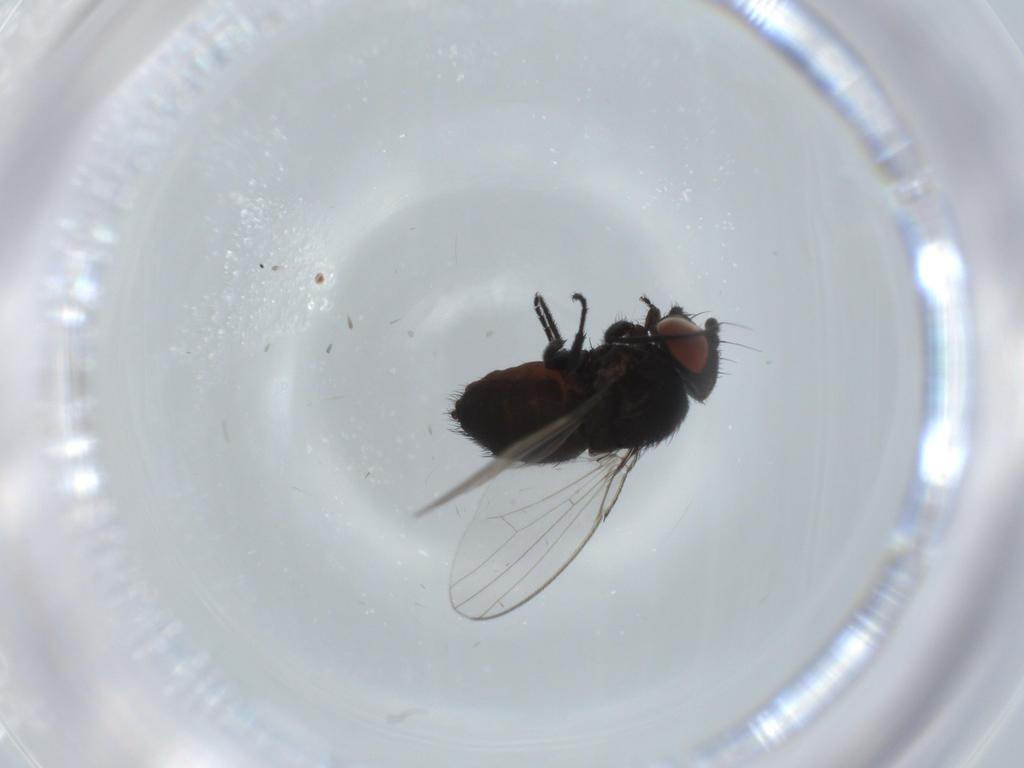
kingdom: Animalia
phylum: Arthropoda
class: Insecta
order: Diptera
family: Milichiidae
